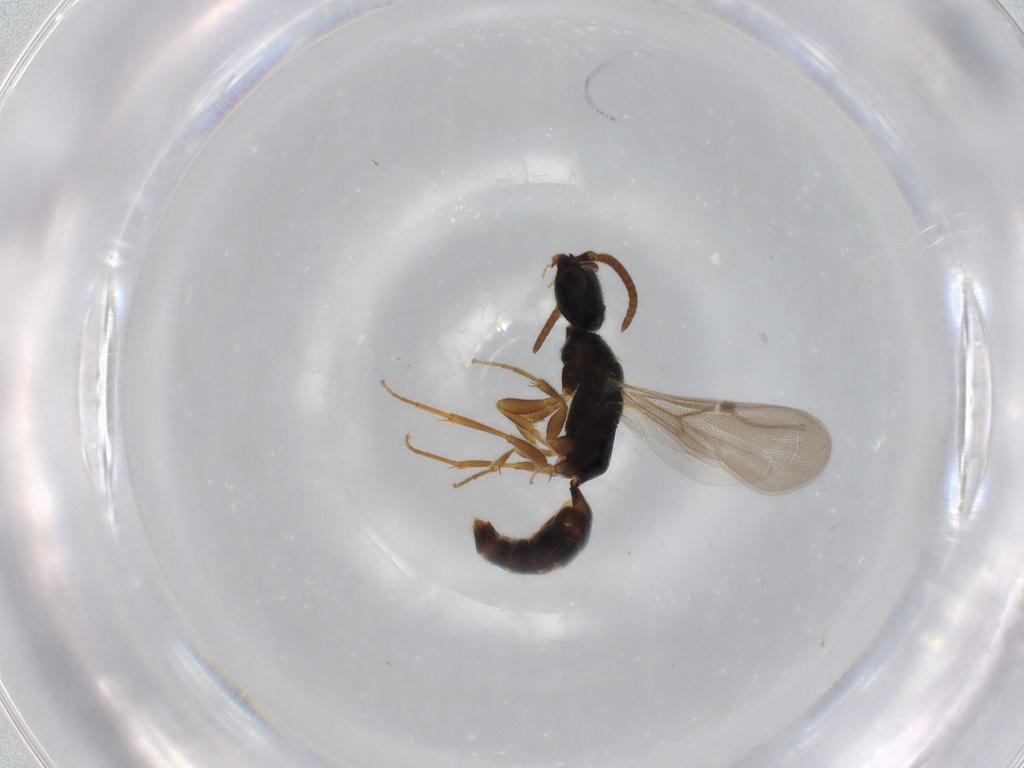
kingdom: Animalia
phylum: Arthropoda
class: Insecta
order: Hymenoptera
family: Bethylidae
